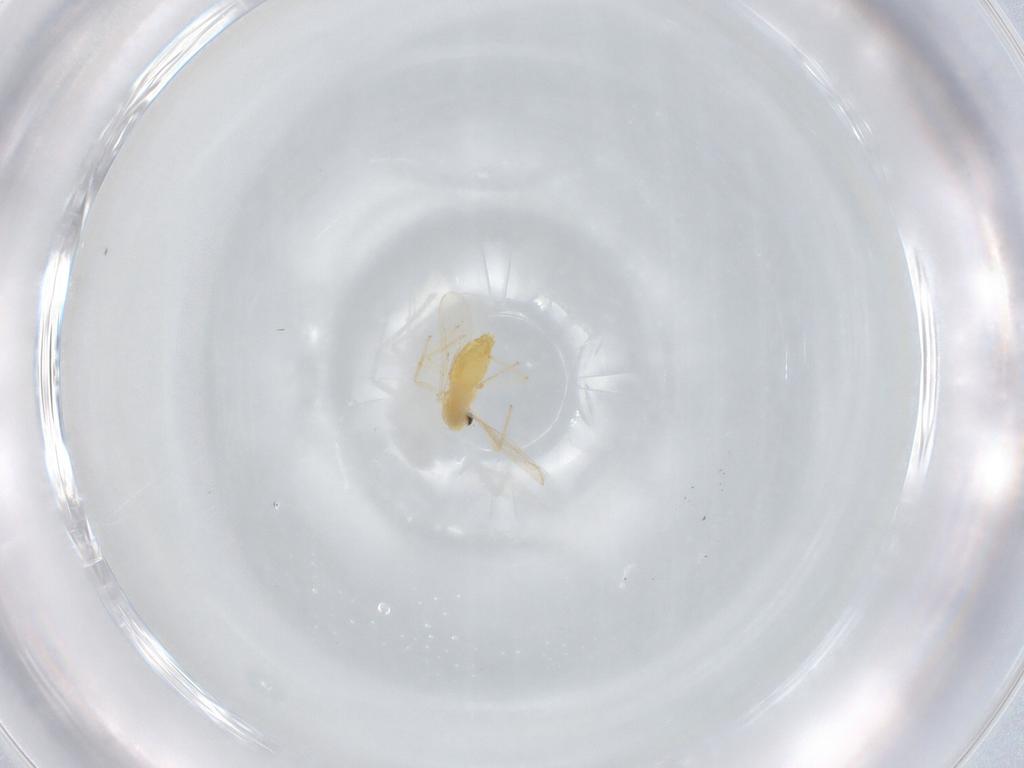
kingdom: Animalia
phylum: Arthropoda
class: Insecta
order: Diptera
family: Chironomidae
